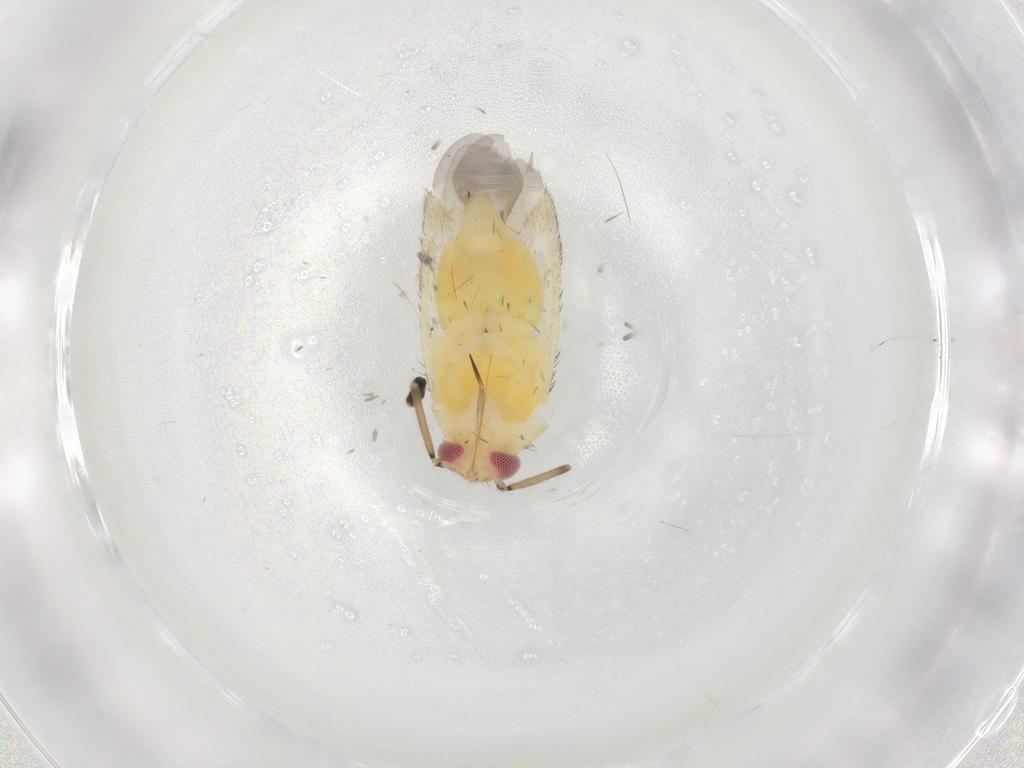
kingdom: Animalia
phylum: Arthropoda
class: Insecta
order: Hemiptera
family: Miridae
